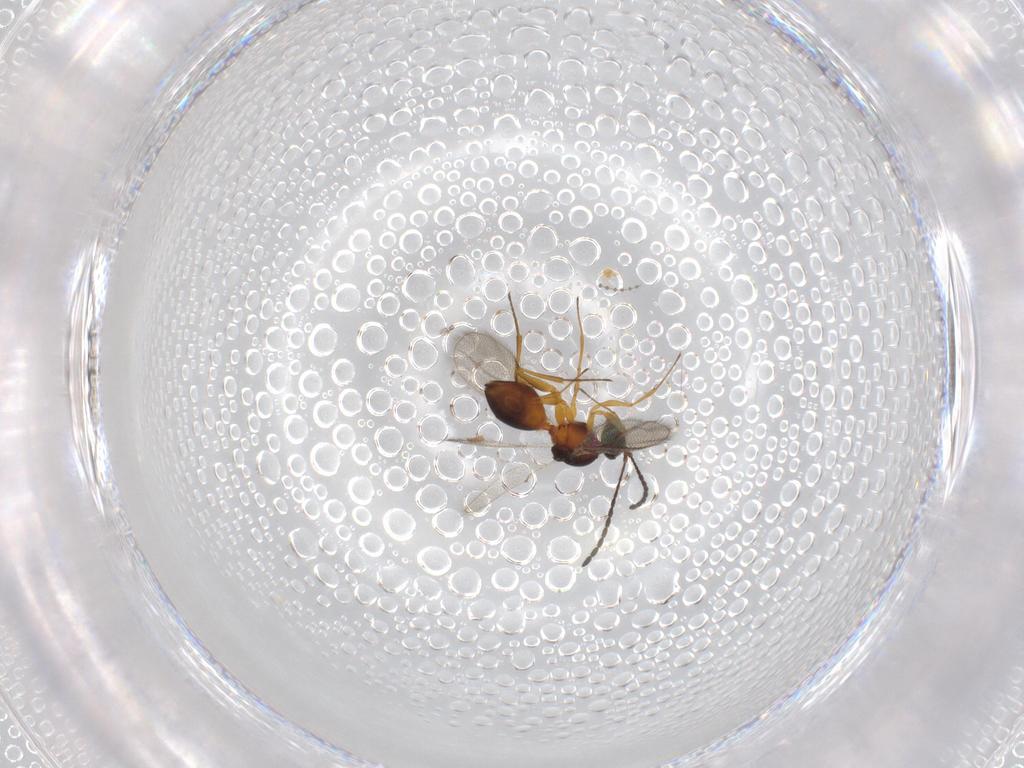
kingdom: Animalia
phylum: Arthropoda
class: Insecta
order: Hymenoptera
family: Figitidae
